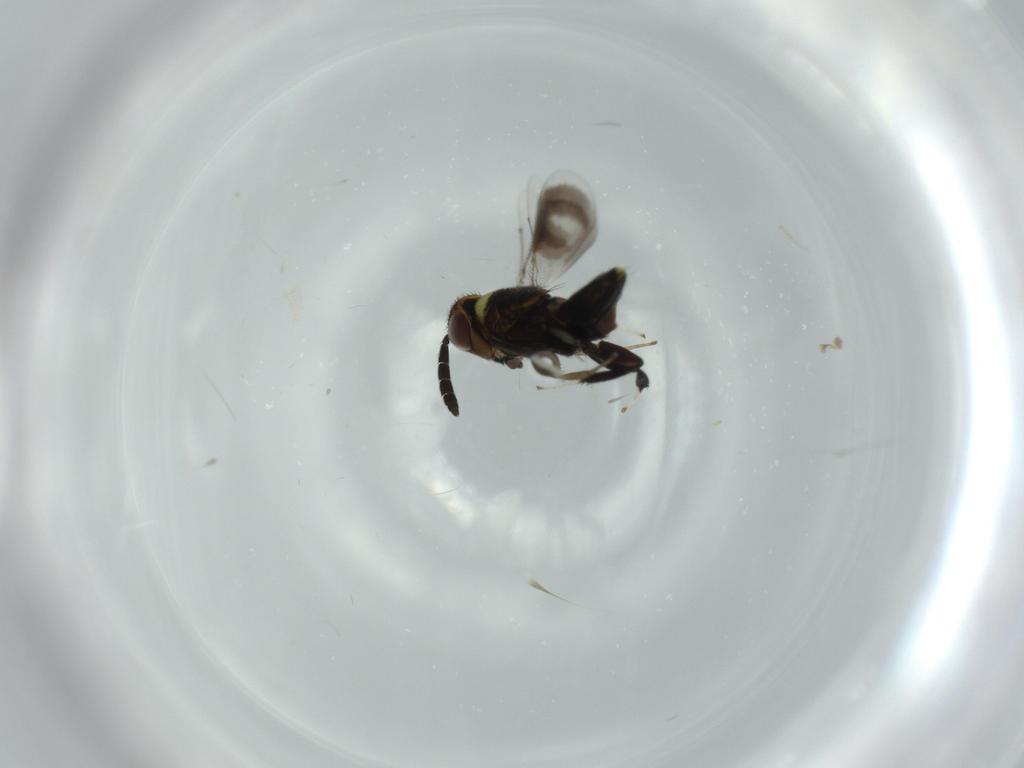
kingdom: Animalia
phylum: Arthropoda
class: Insecta
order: Hymenoptera
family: Aphelinidae
